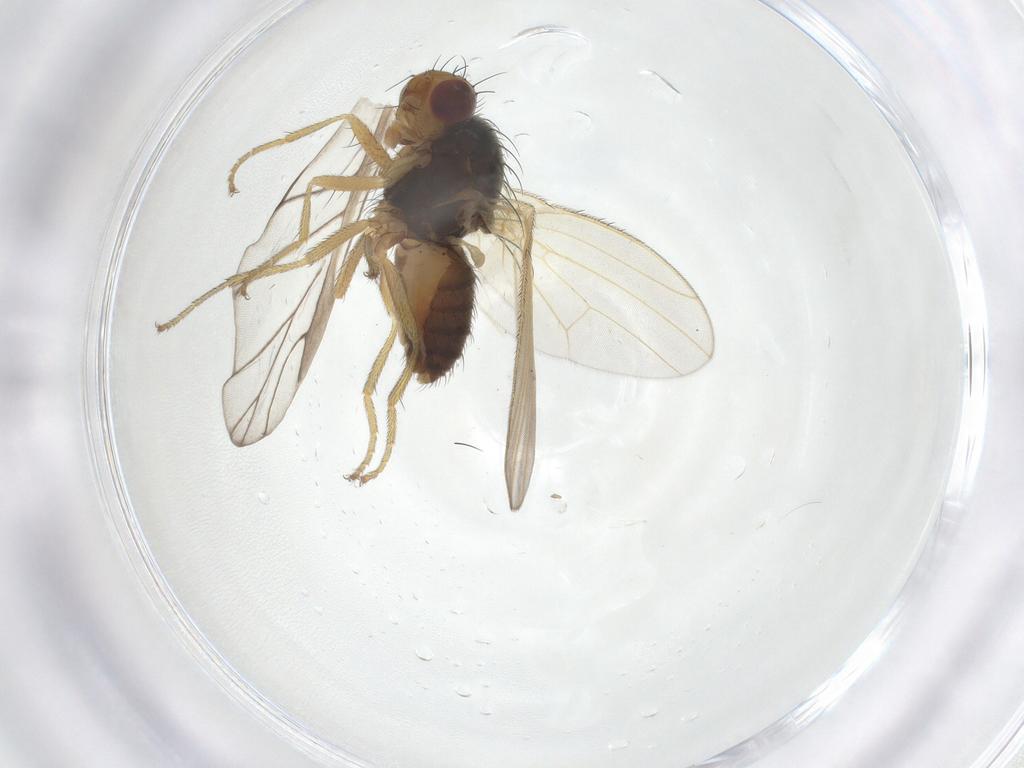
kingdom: Animalia
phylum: Arthropoda
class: Insecta
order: Diptera
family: Heleomyzidae
